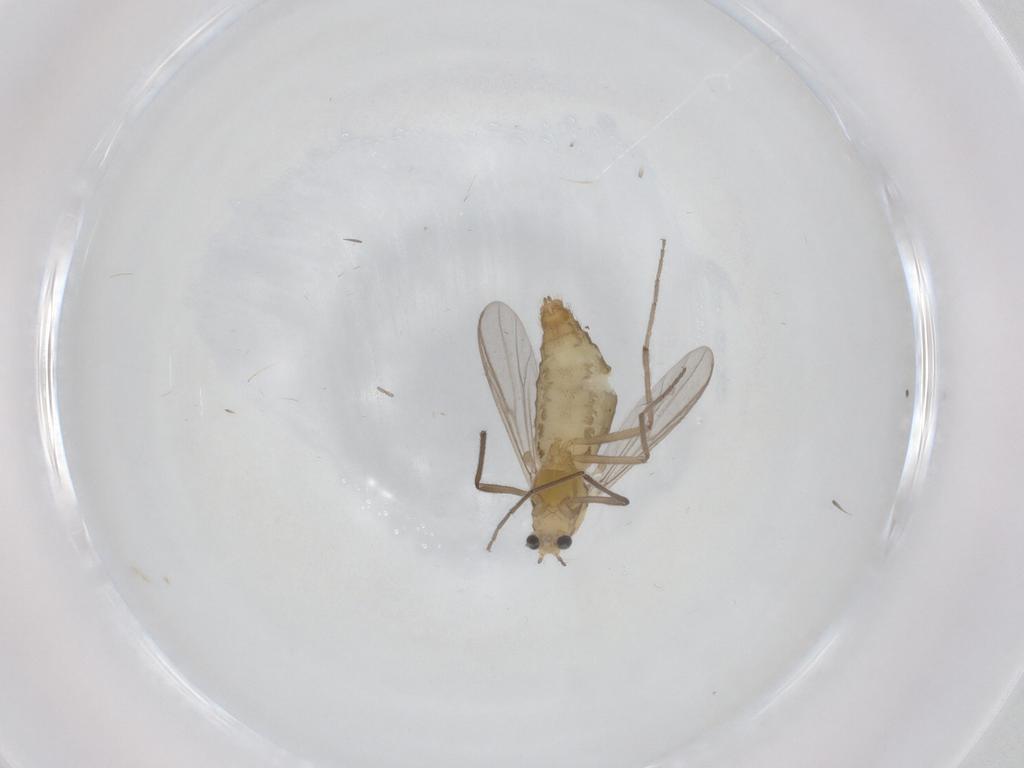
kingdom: Animalia
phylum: Arthropoda
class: Insecta
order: Diptera
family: Chironomidae
